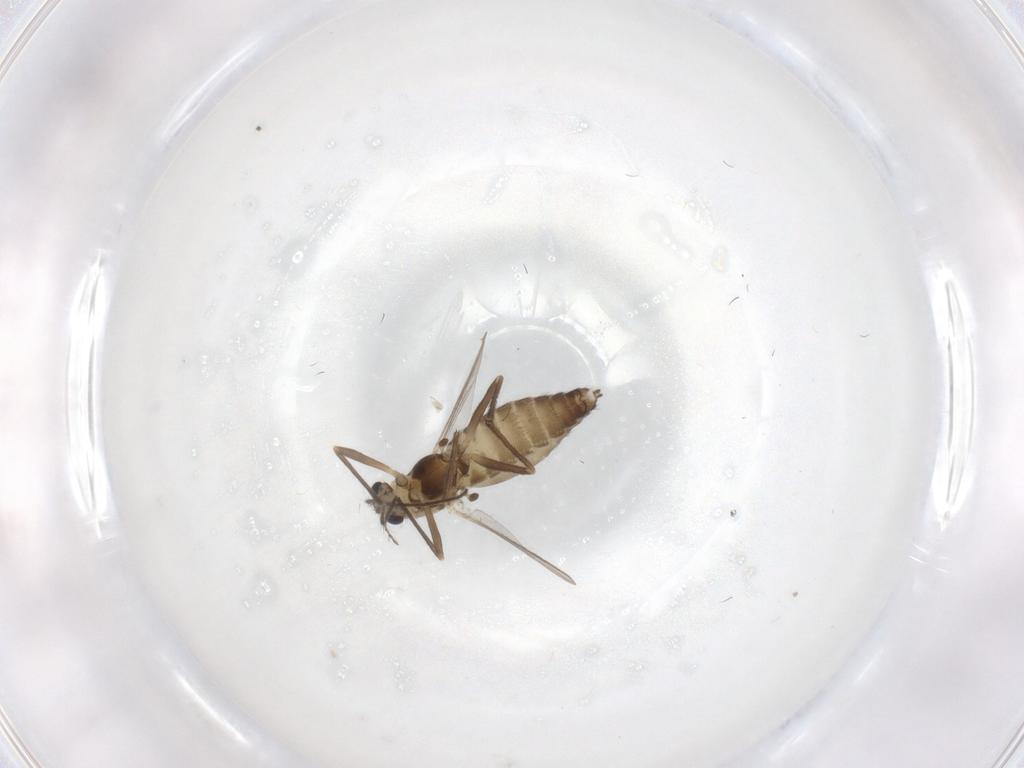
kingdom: Animalia
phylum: Arthropoda
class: Insecta
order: Diptera
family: Chironomidae
